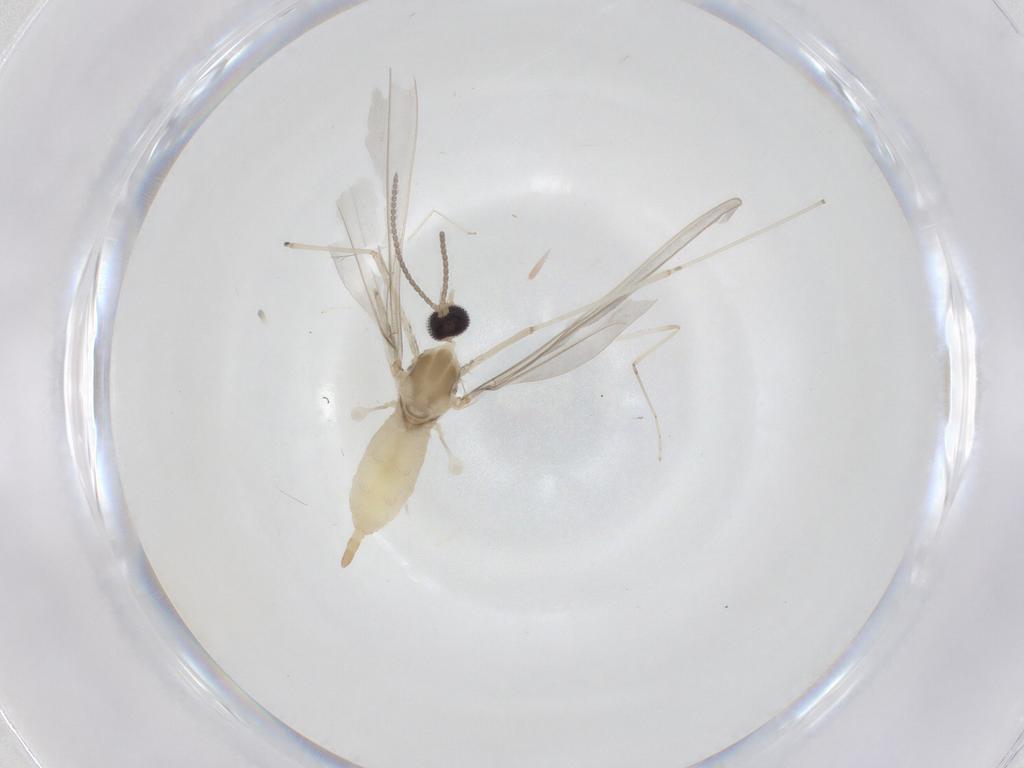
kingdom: Animalia
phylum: Arthropoda
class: Insecta
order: Diptera
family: Cecidomyiidae
